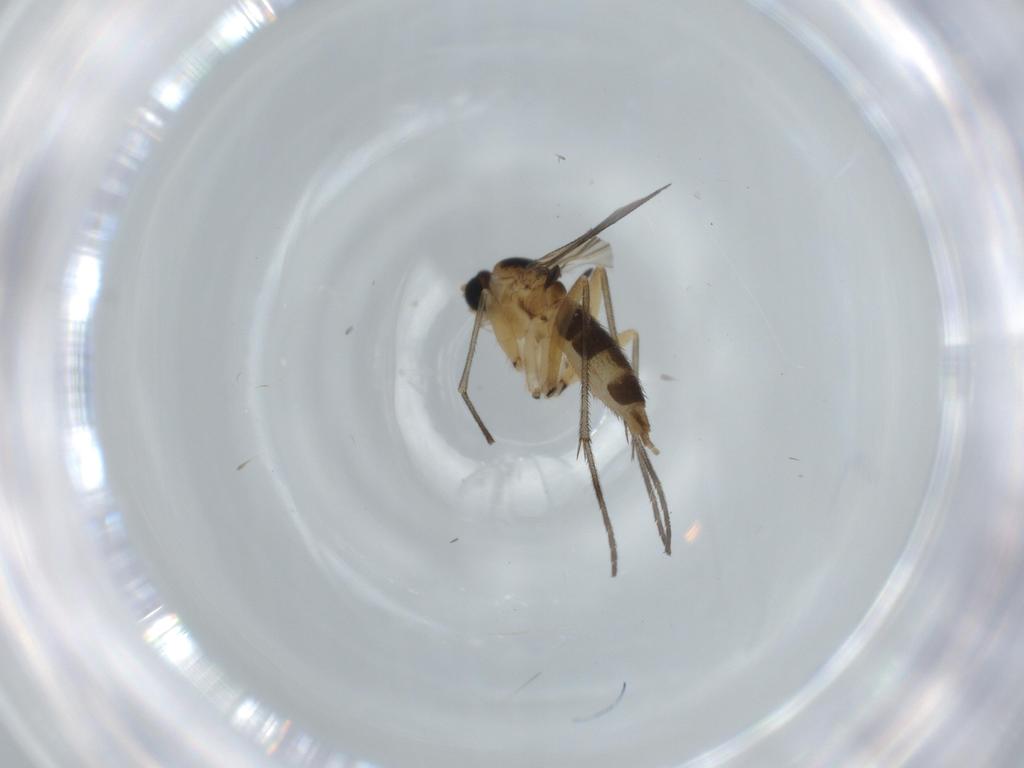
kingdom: Animalia
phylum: Arthropoda
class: Insecta
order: Diptera
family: Sciaridae
